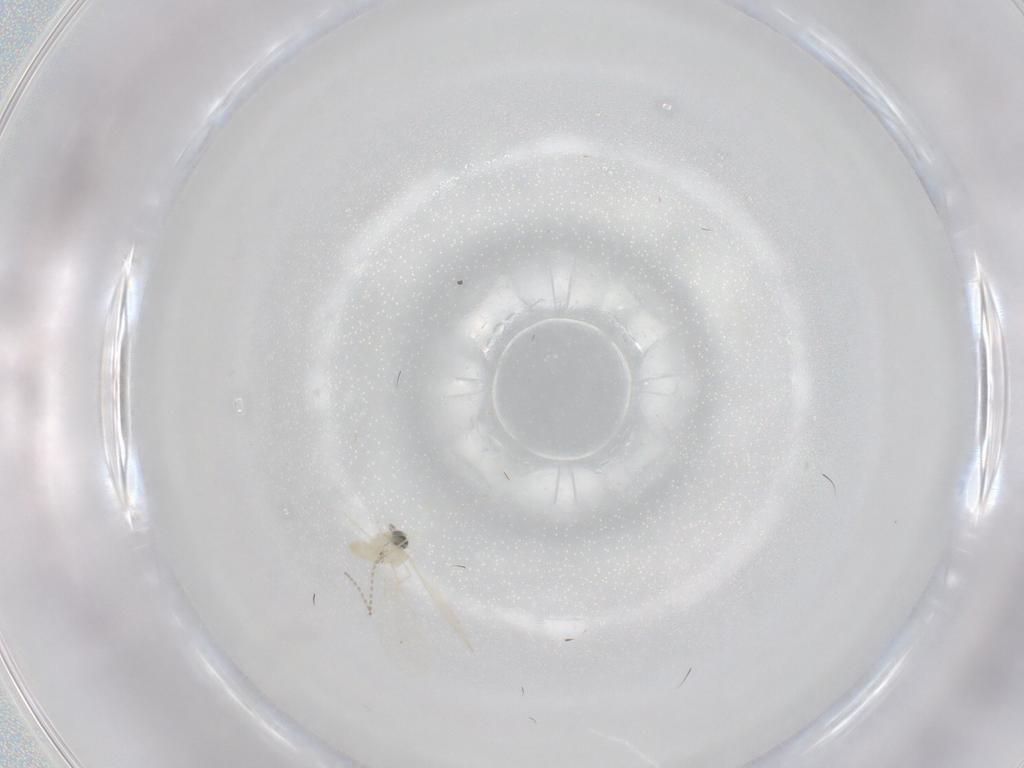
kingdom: Animalia
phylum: Arthropoda
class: Insecta
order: Diptera
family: Cecidomyiidae
